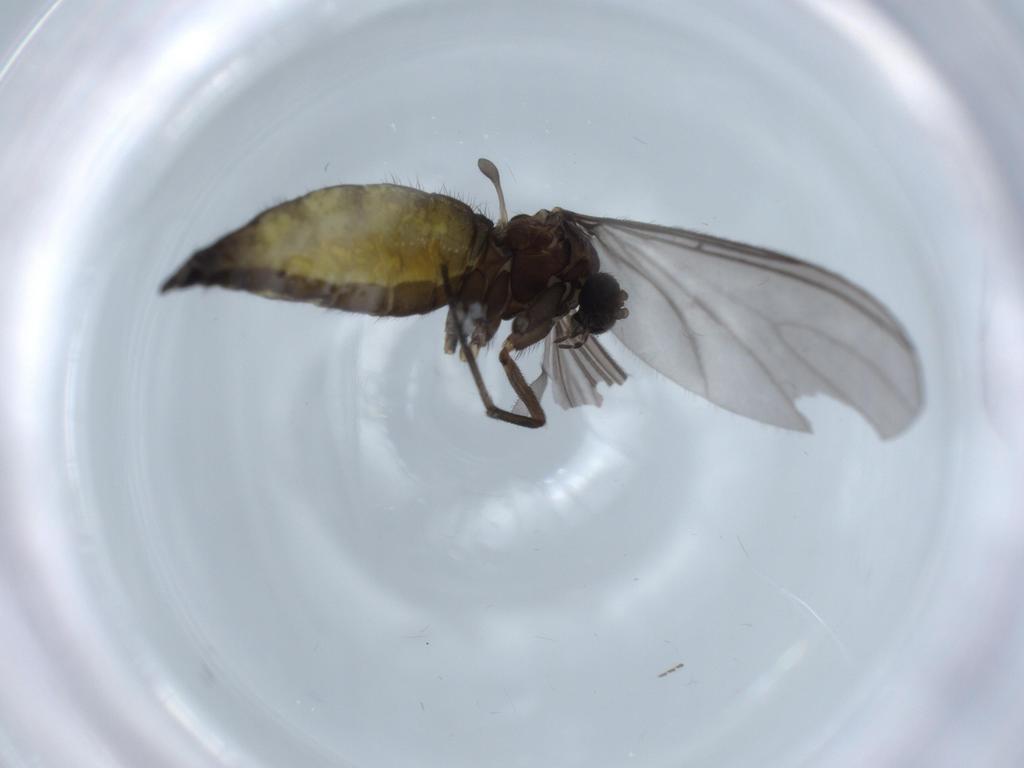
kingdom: Animalia
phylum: Arthropoda
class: Insecta
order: Diptera
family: Sciaridae
